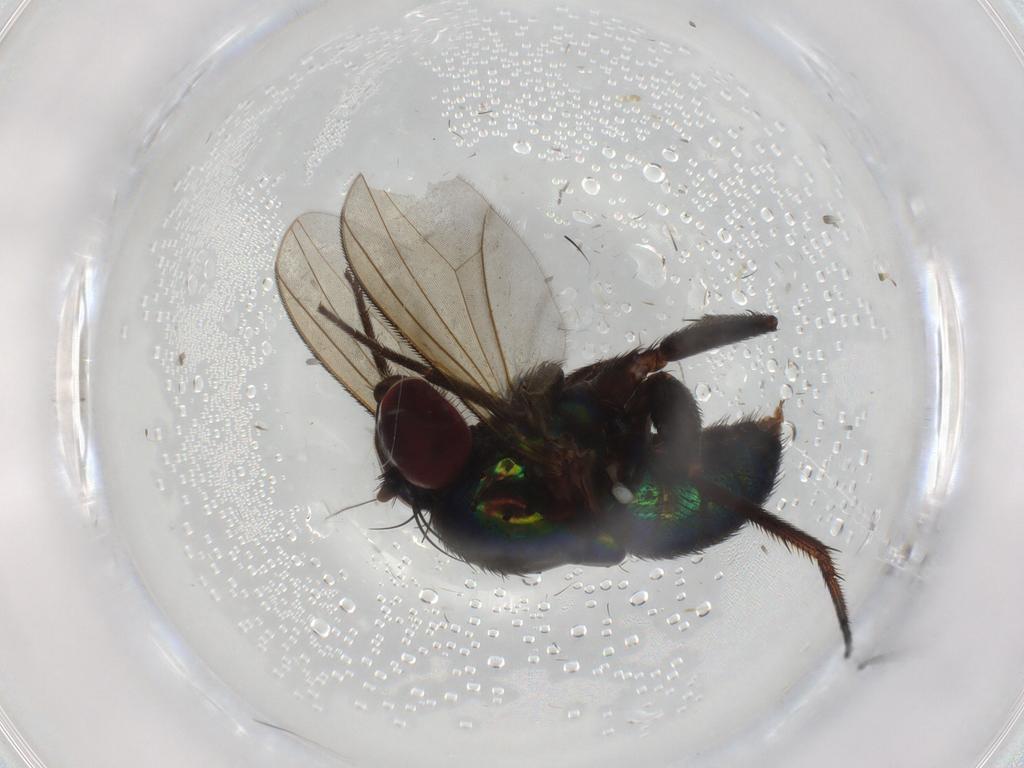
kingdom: Animalia
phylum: Arthropoda
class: Insecta
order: Diptera
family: Dolichopodidae
